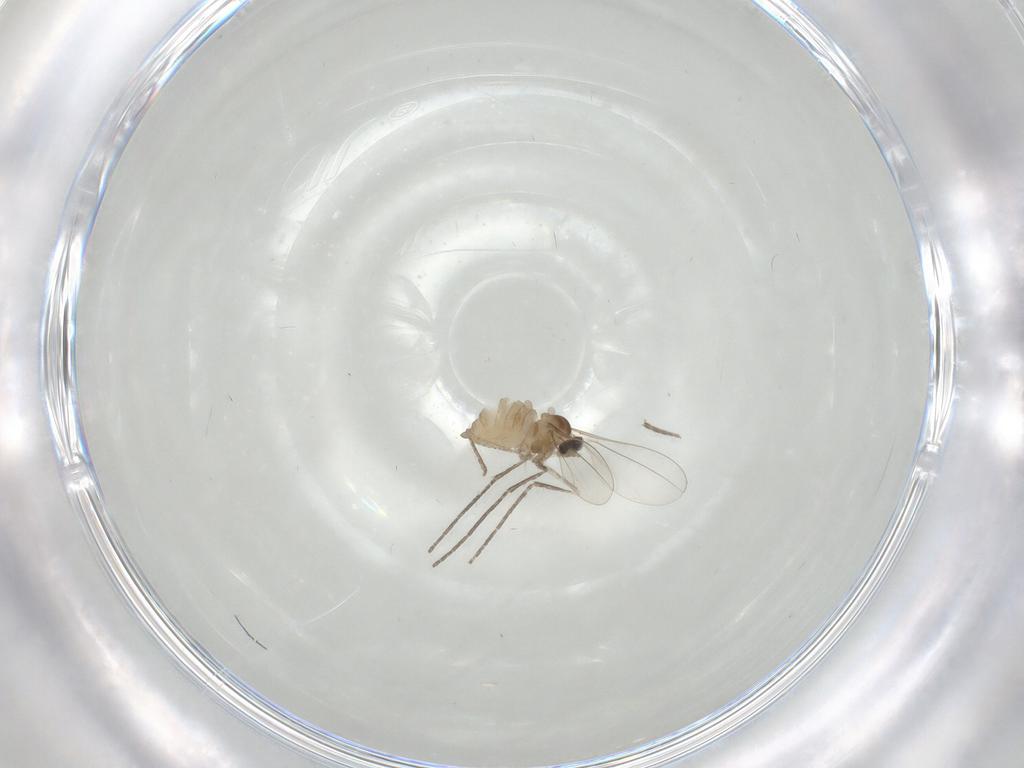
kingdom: Animalia
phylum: Arthropoda
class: Insecta
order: Diptera
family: Cecidomyiidae
